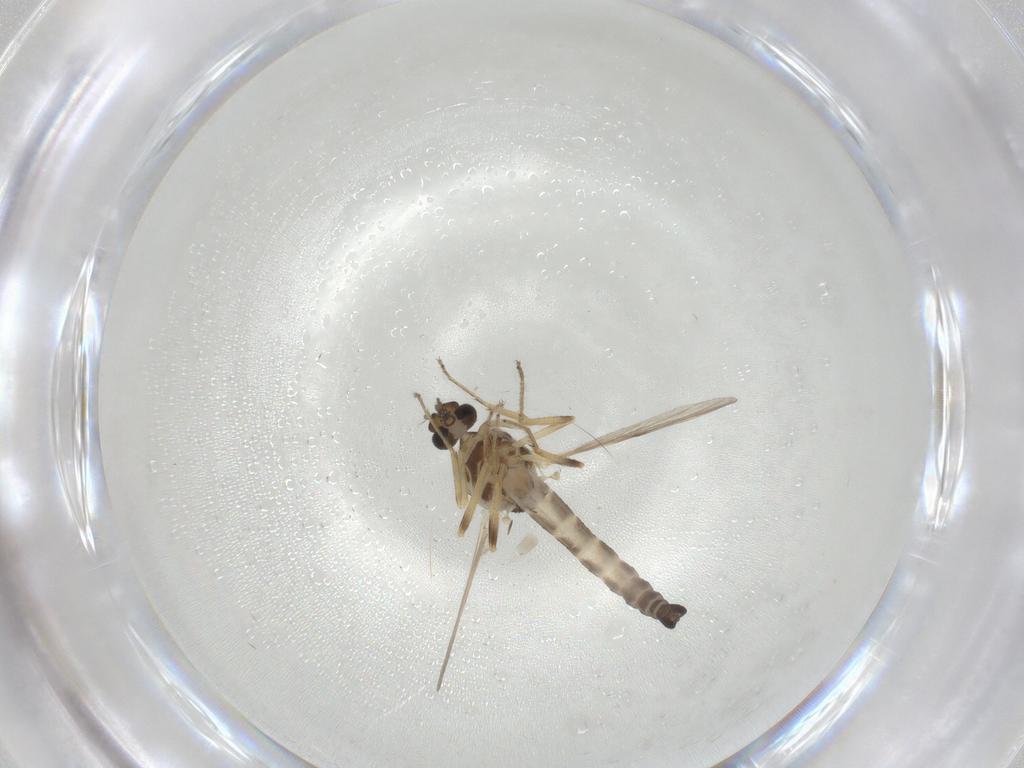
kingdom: Animalia
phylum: Arthropoda
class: Insecta
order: Diptera
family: Ceratopogonidae
